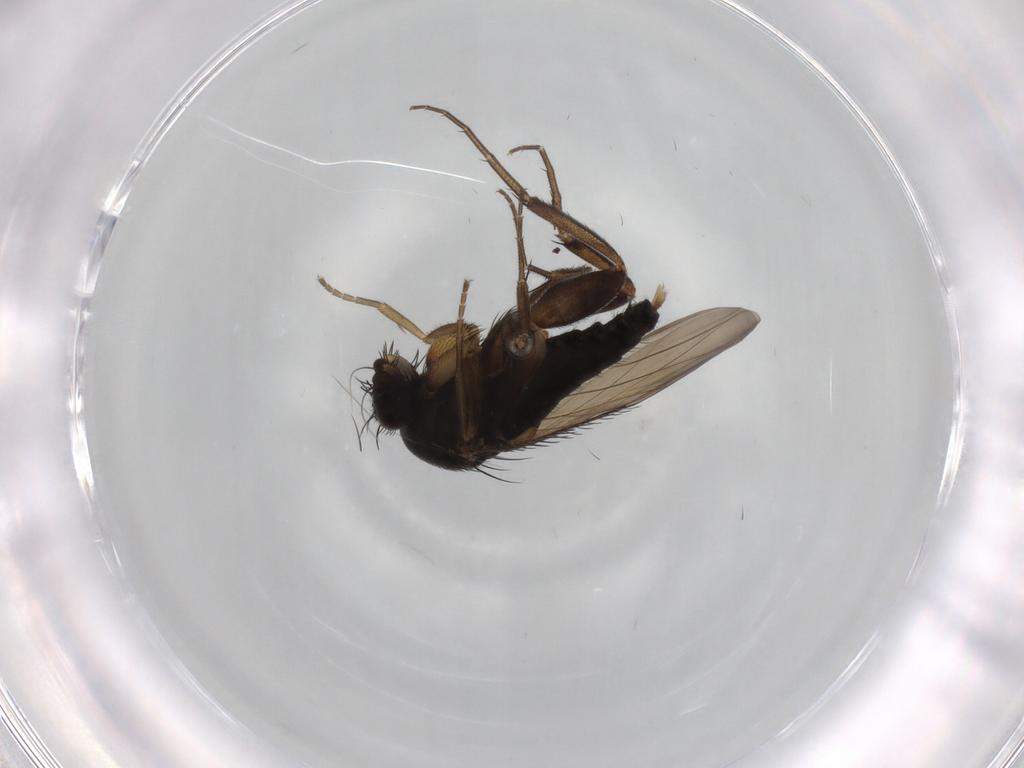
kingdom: Animalia
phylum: Arthropoda
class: Insecta
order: Diptera
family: Phoridae
